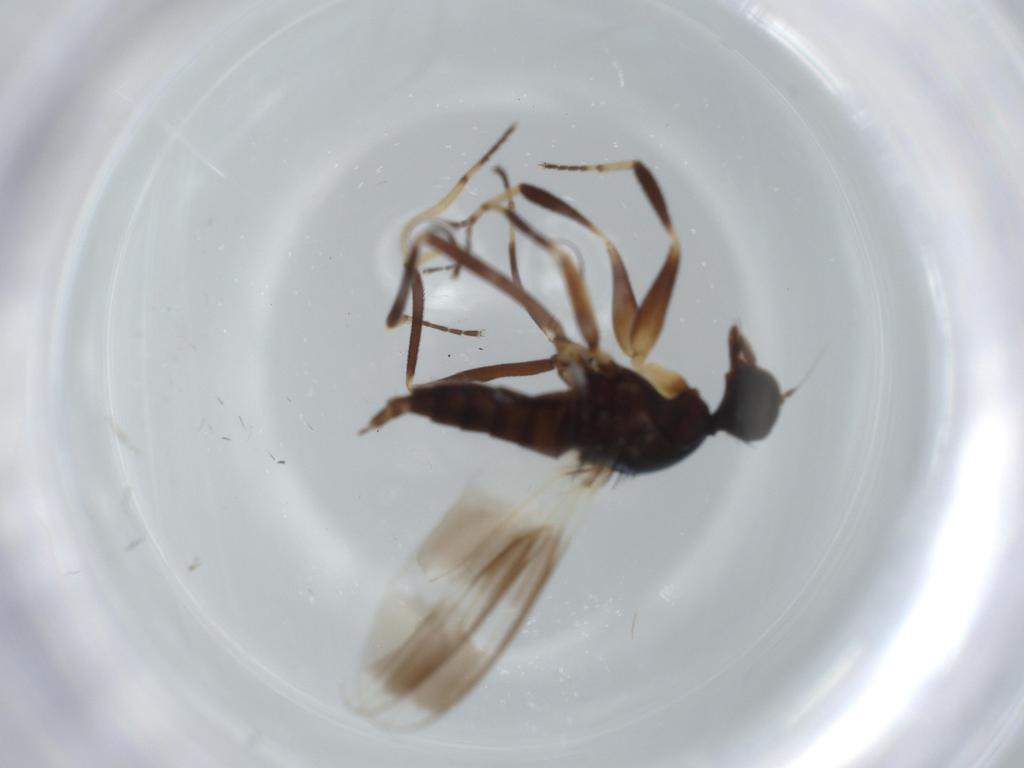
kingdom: Animalia
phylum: Arthropoda
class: Insecta
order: Diptera
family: Hybotidae
